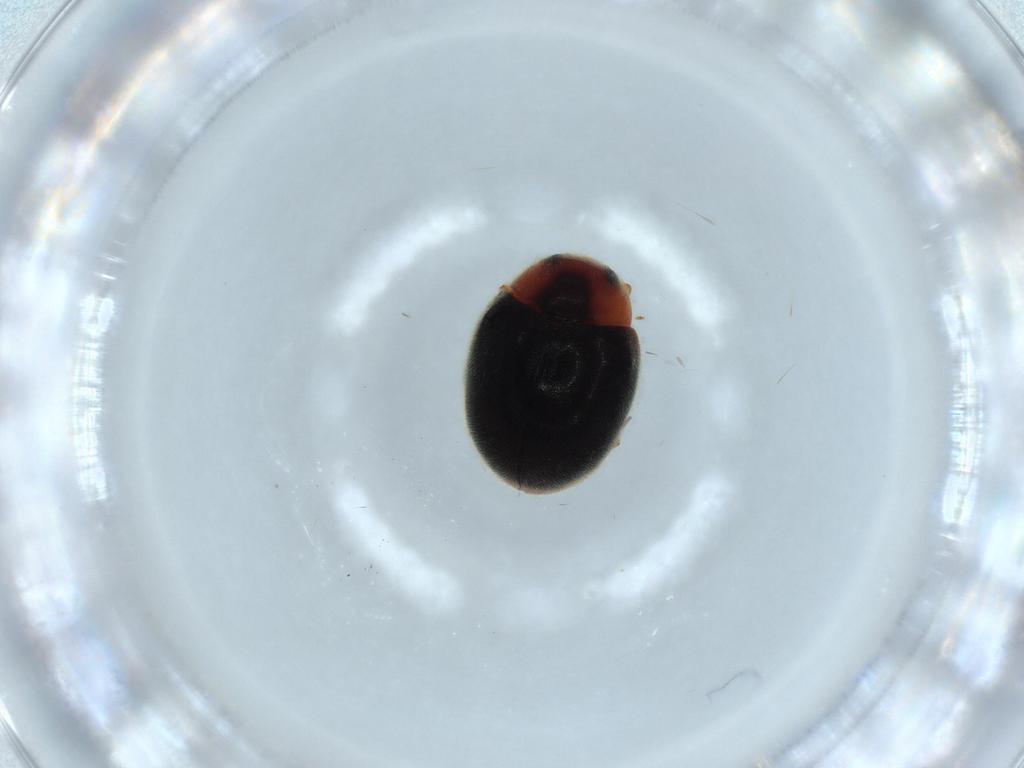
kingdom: Animalia
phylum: Arthropoda
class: Insecta
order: Coleoptera
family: Coccinellidae
